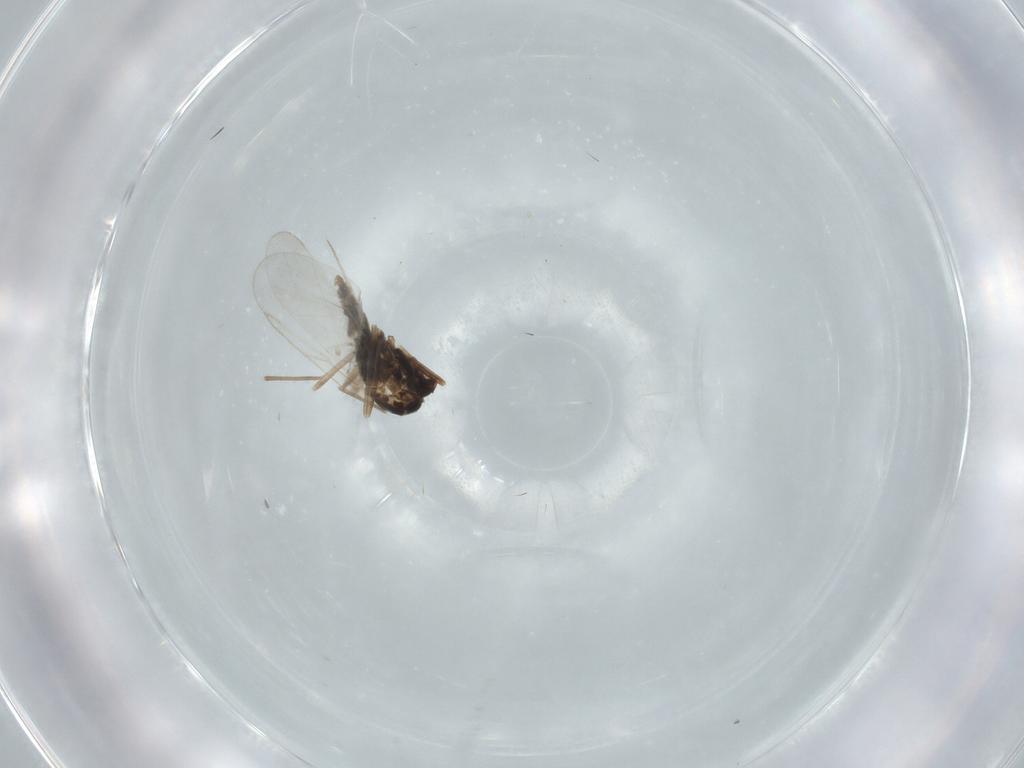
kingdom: Animalia
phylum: Arthropoda
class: Insecta
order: Diptera
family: Cecidomyiidae
